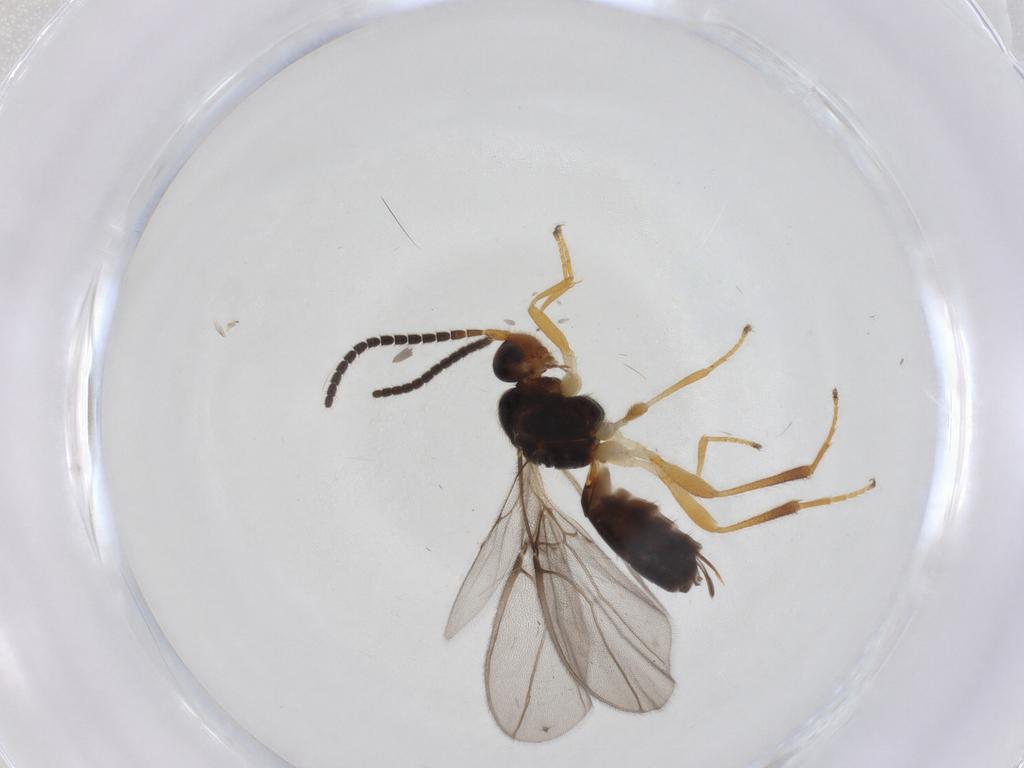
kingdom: Animalia
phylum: Arthropoda
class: Insecta
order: Hymenoptera
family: Braconidae
